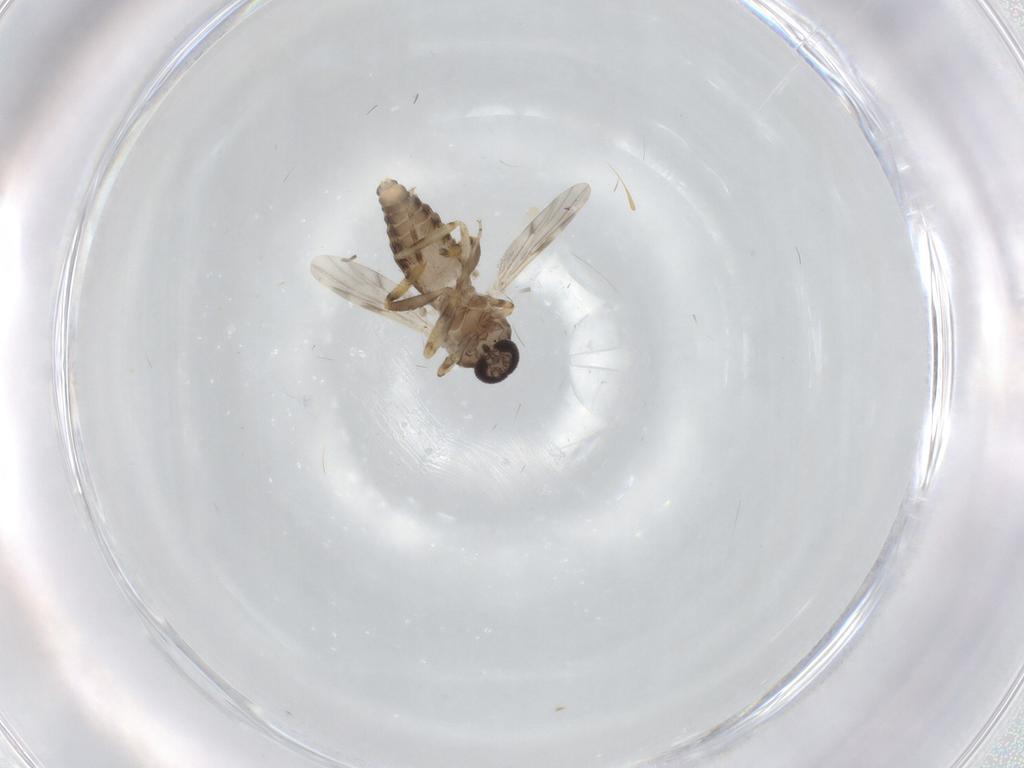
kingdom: Animalia
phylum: Arthropoda
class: Insecta
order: Diptera
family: Ceratopogonidae
